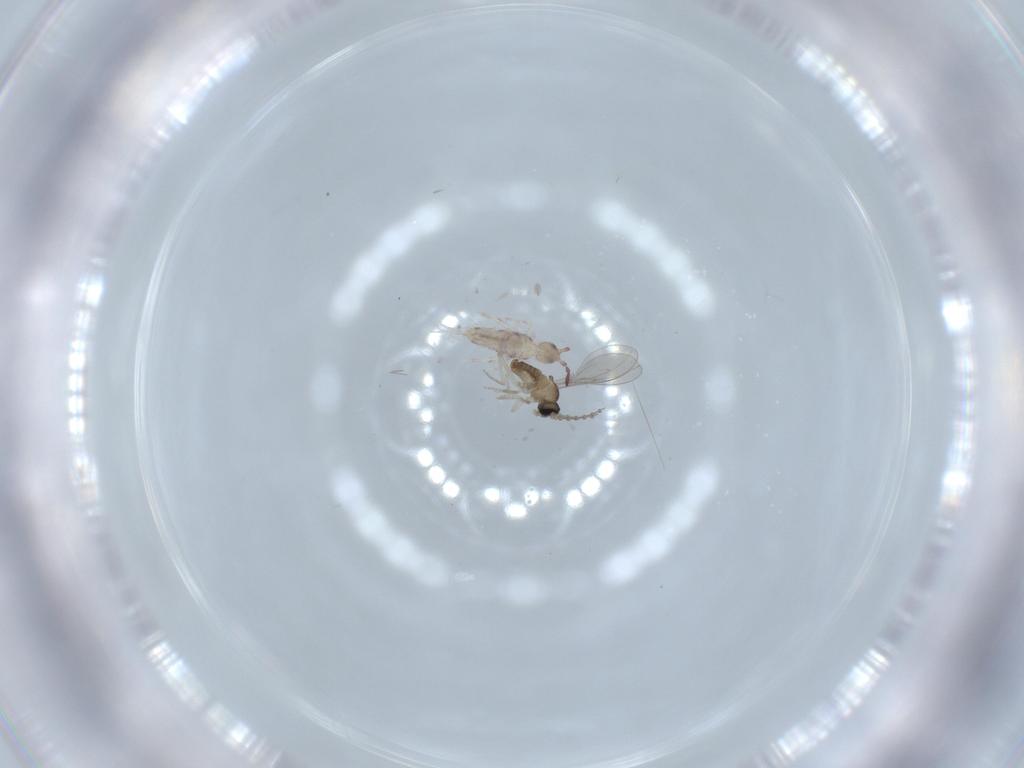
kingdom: Animalia
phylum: Arthropoda
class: Insecta
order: Diptera
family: Cecidomyiidae
